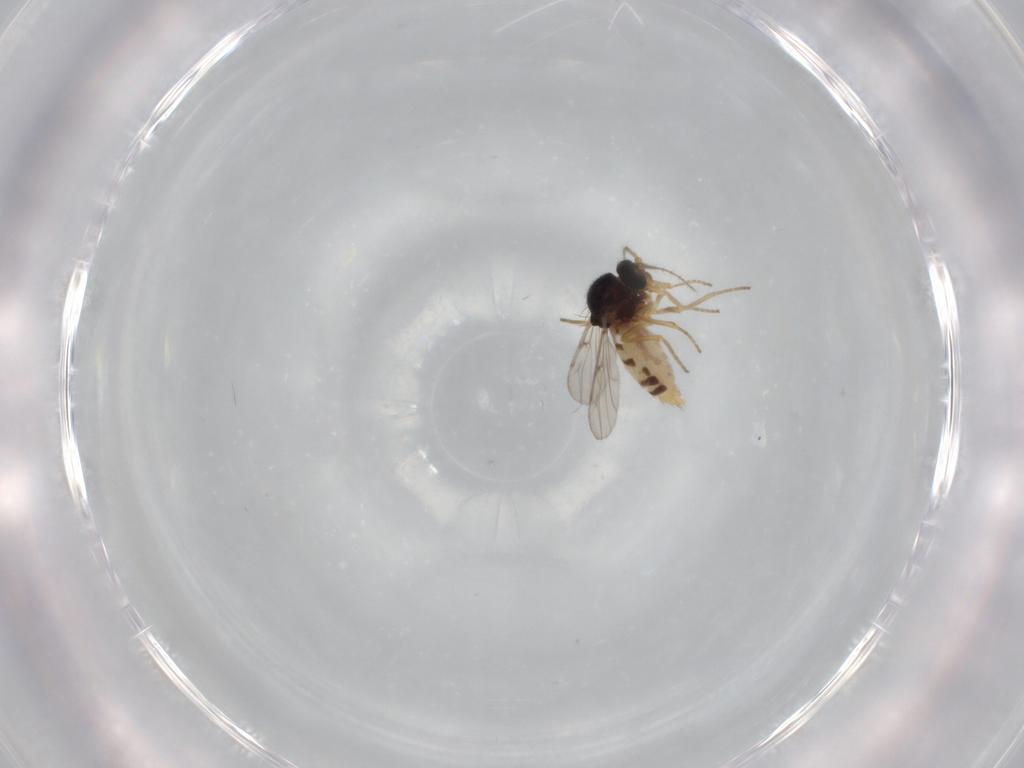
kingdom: Animalia
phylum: Arthropoda
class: Insecta
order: Diptera
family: Ceratopogonidae
